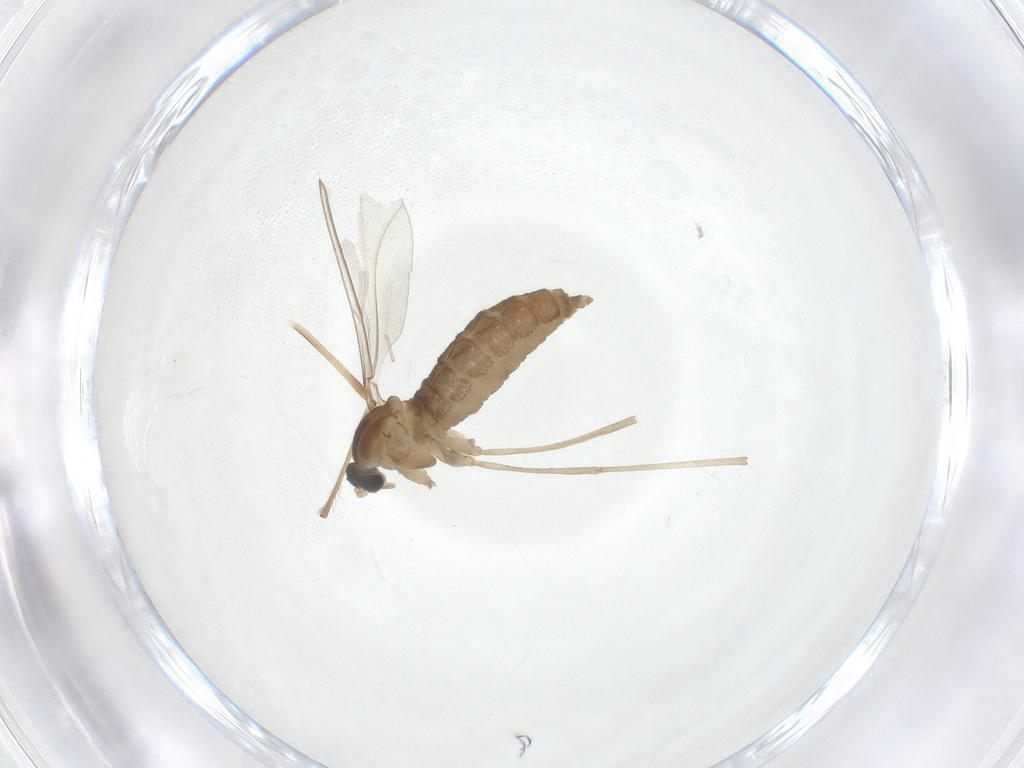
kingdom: Animalia
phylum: Arthropoda
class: Insecta
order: Diptera
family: Cecidomyiidae
